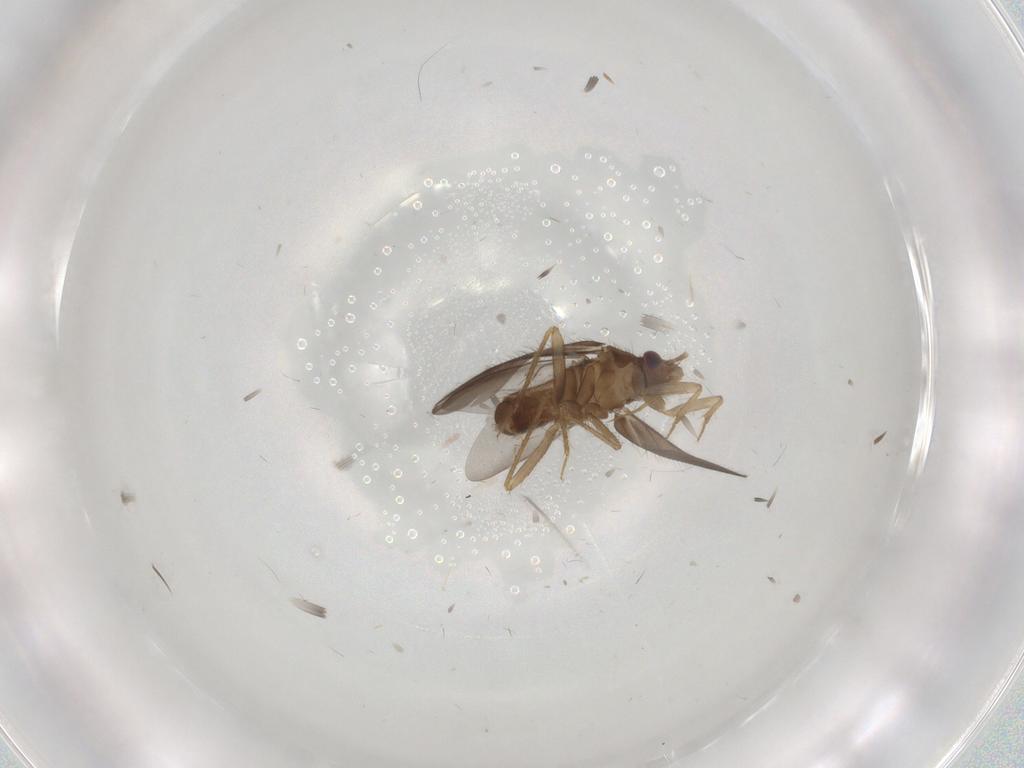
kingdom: Animalia
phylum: Arthropoda
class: Insecta
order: Hemiptera
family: Ceratocombidae
